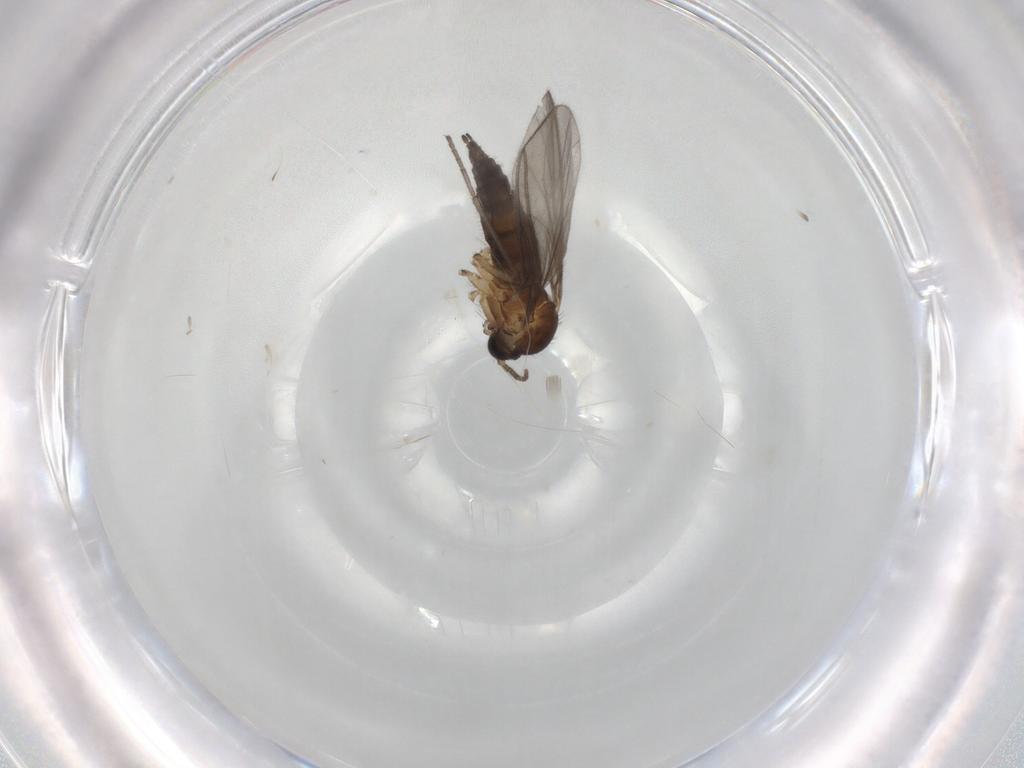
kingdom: Animalia
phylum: Arthropoda
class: Insecta
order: Diptera
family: Sciaridae
